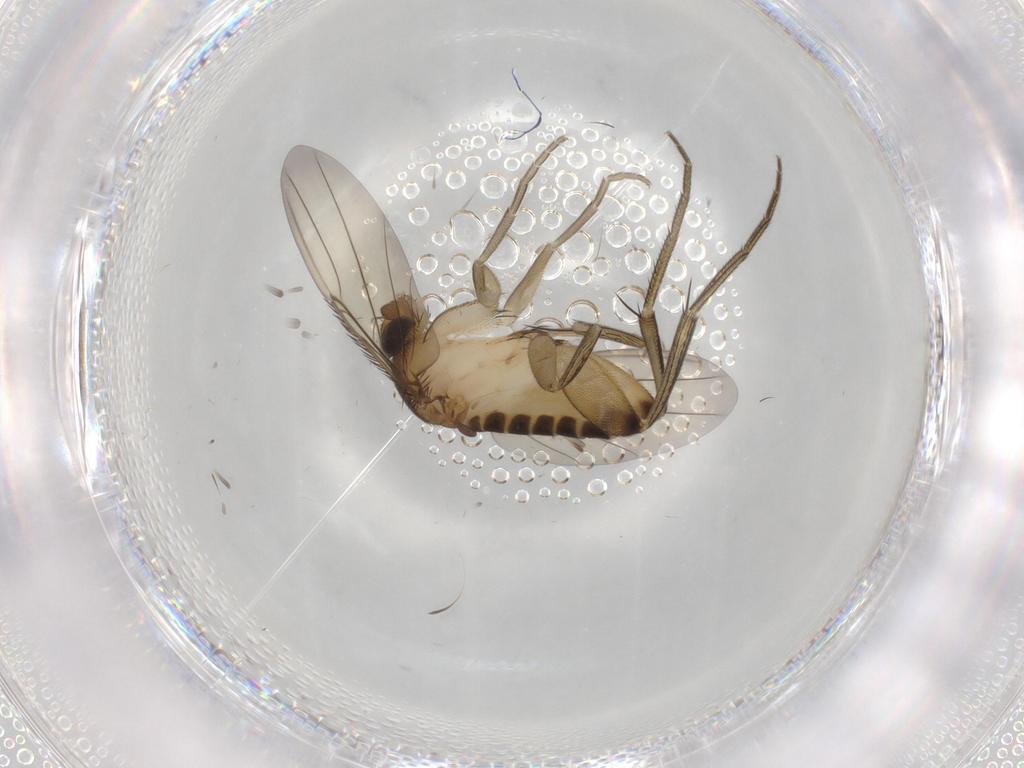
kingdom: Animalia
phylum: Arthropoda
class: Insecta
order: Diptera
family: Phoridae
